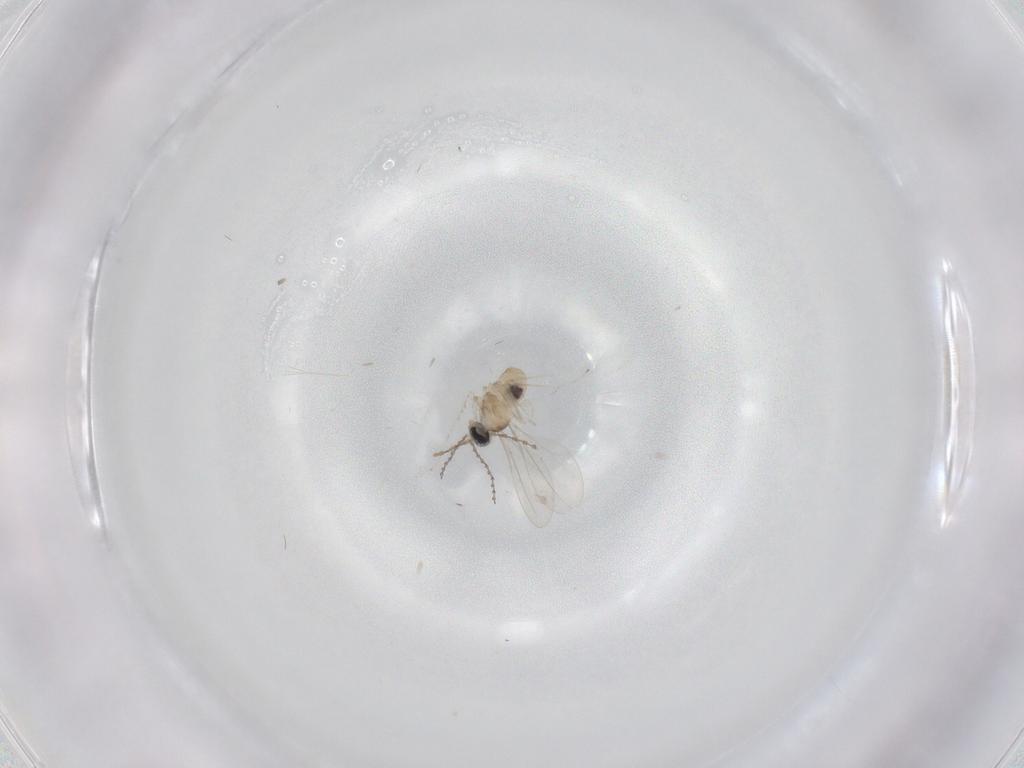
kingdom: Animalia
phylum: Arthropoda
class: Insecta
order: Diptera
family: Cecidomyiidae
